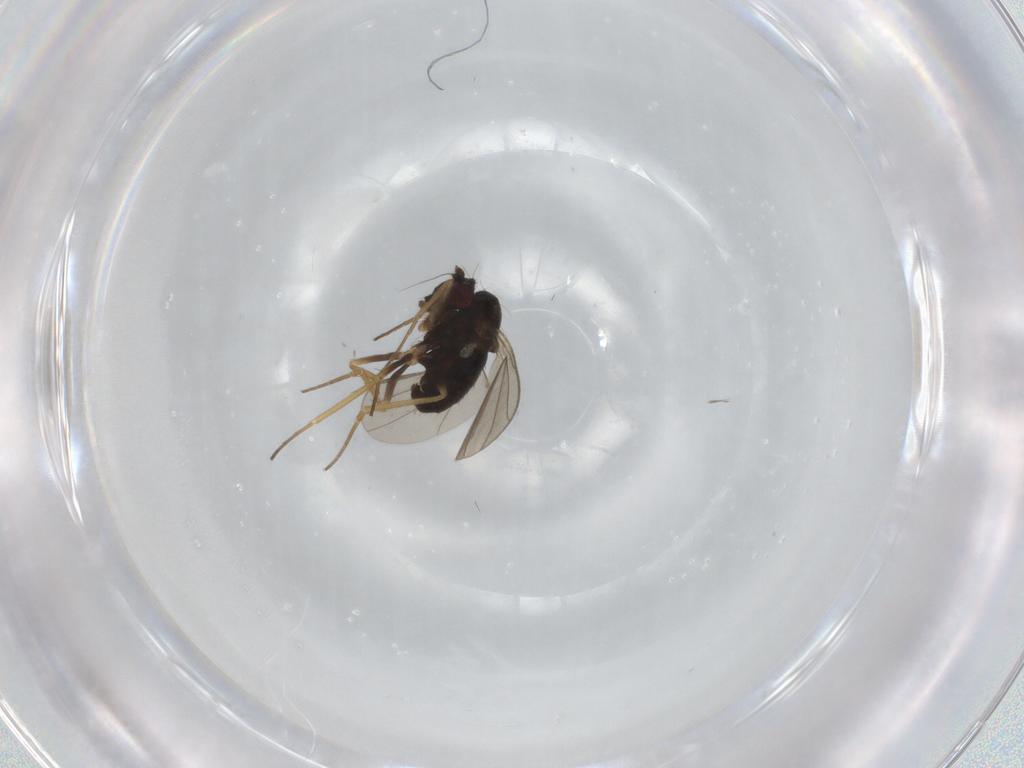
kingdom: Animalia
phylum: Arthropoda
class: Insecta
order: Diptera
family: Dolichopodidae
